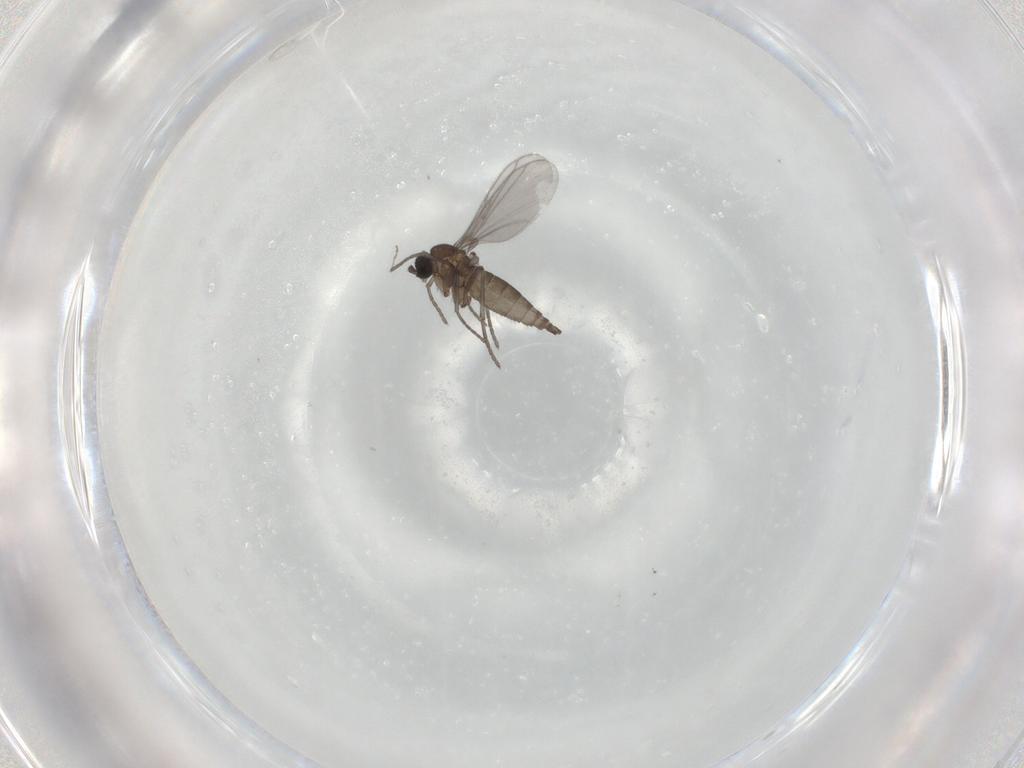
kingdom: Animalia
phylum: Arthropoda
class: Insecta
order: Diptera
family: Chironomidae
